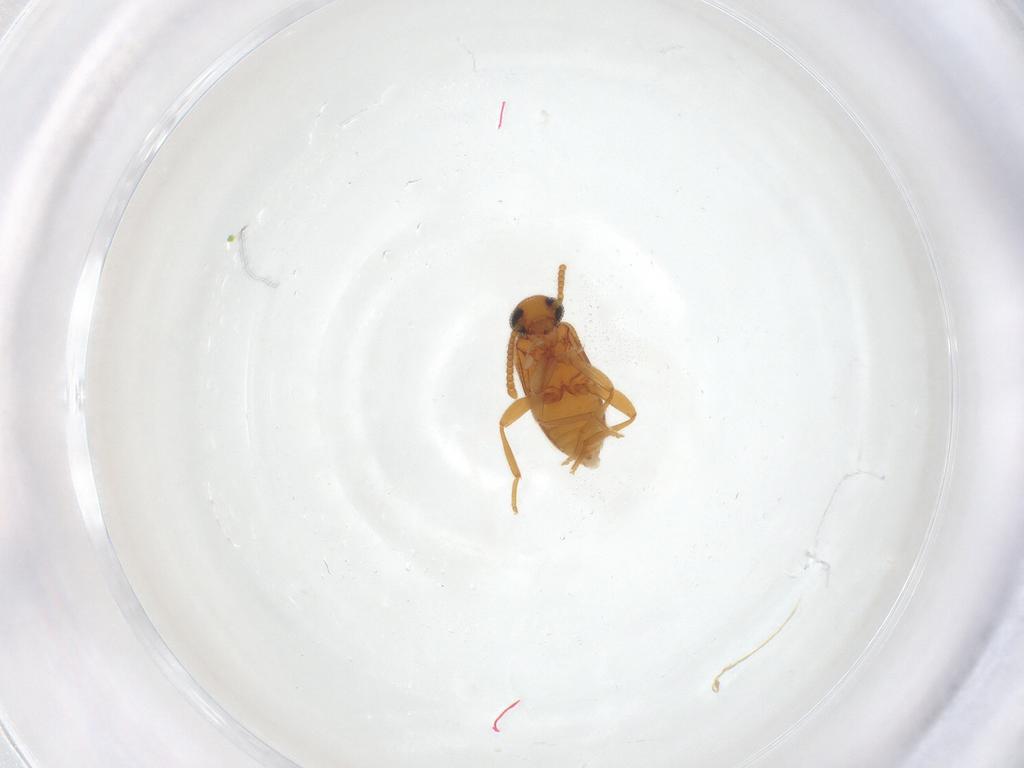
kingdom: Animalia
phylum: Arthropoda
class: Insecta
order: Coleoptera
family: Aderidae
